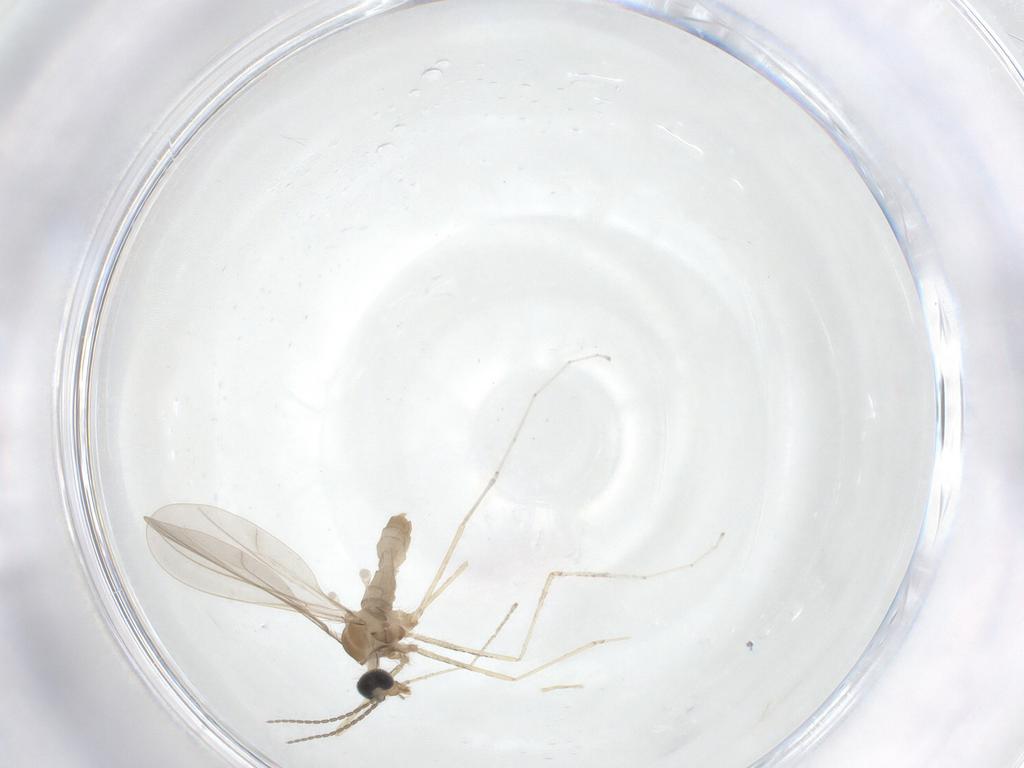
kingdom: Animalia
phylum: Arthropoda
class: Insecta
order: Diptera
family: Cecidomyiidae
